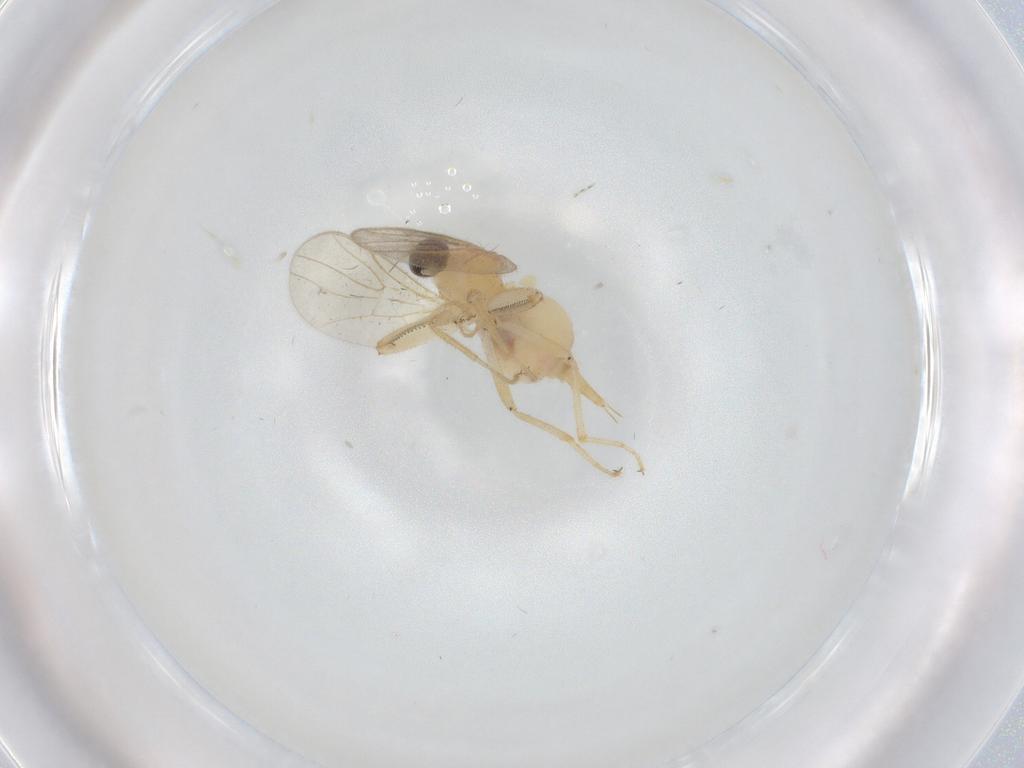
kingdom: Animalia
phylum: Arthropoda
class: Insecta
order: Diptera
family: Hybotidae
